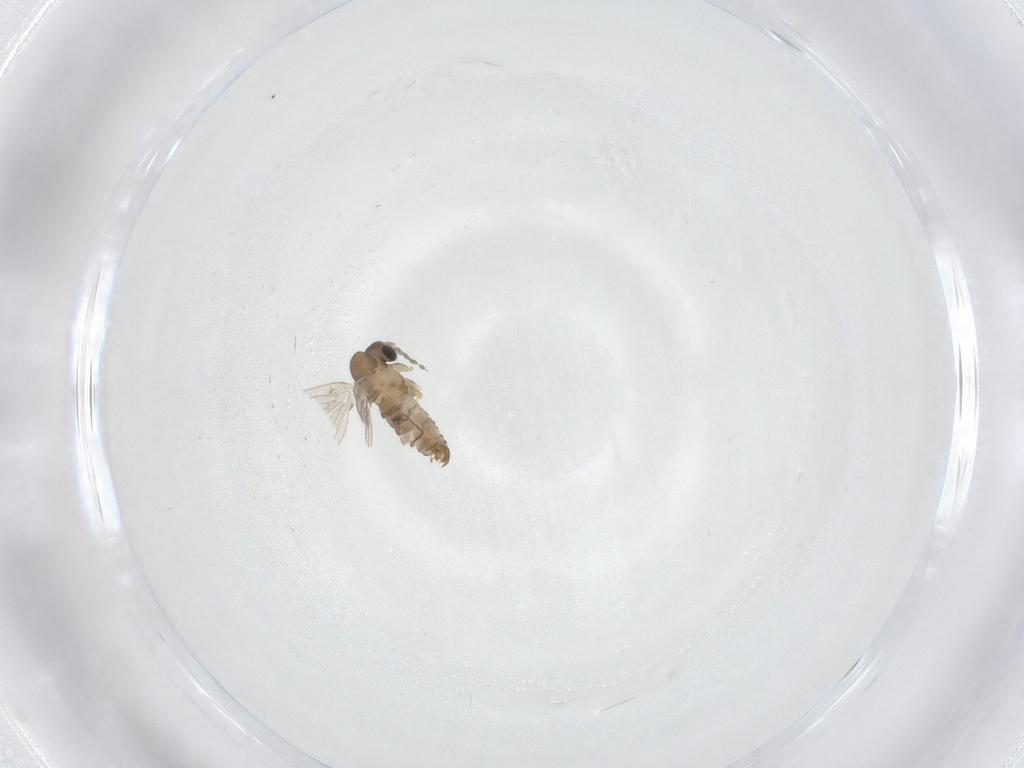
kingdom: Animalia
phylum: Arthropoda
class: Insecta
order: Diptera
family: Psychodidae
